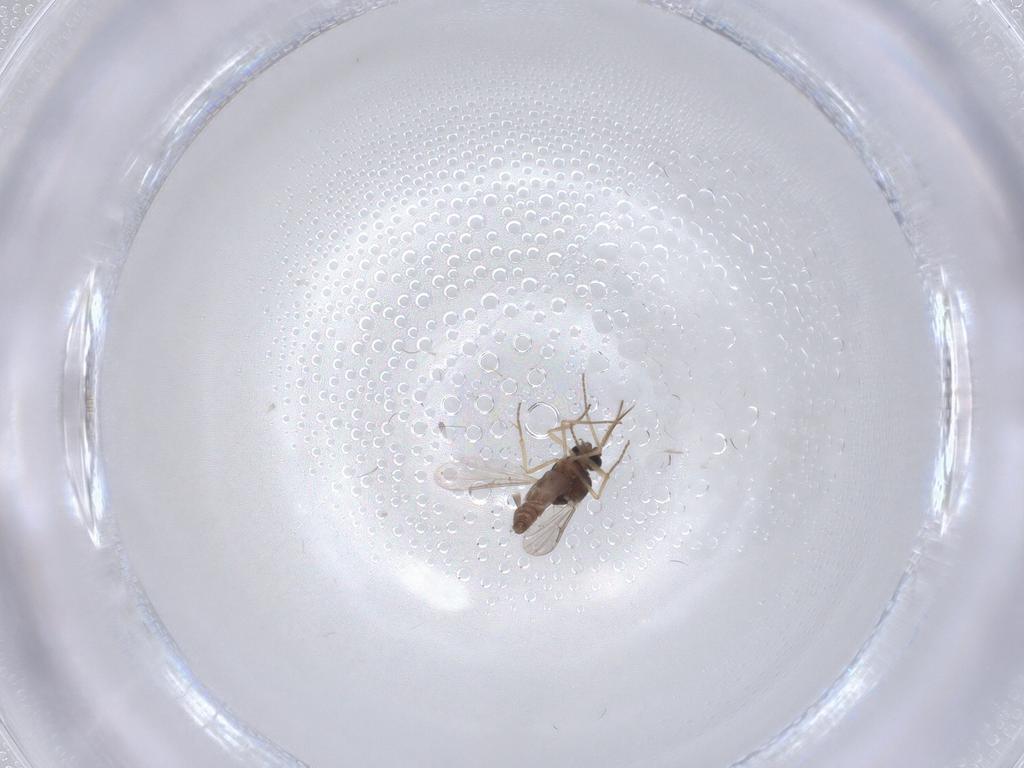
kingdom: Animalia
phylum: Arthropoda
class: Insecta
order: Diptera
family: Ceratopogonidae
